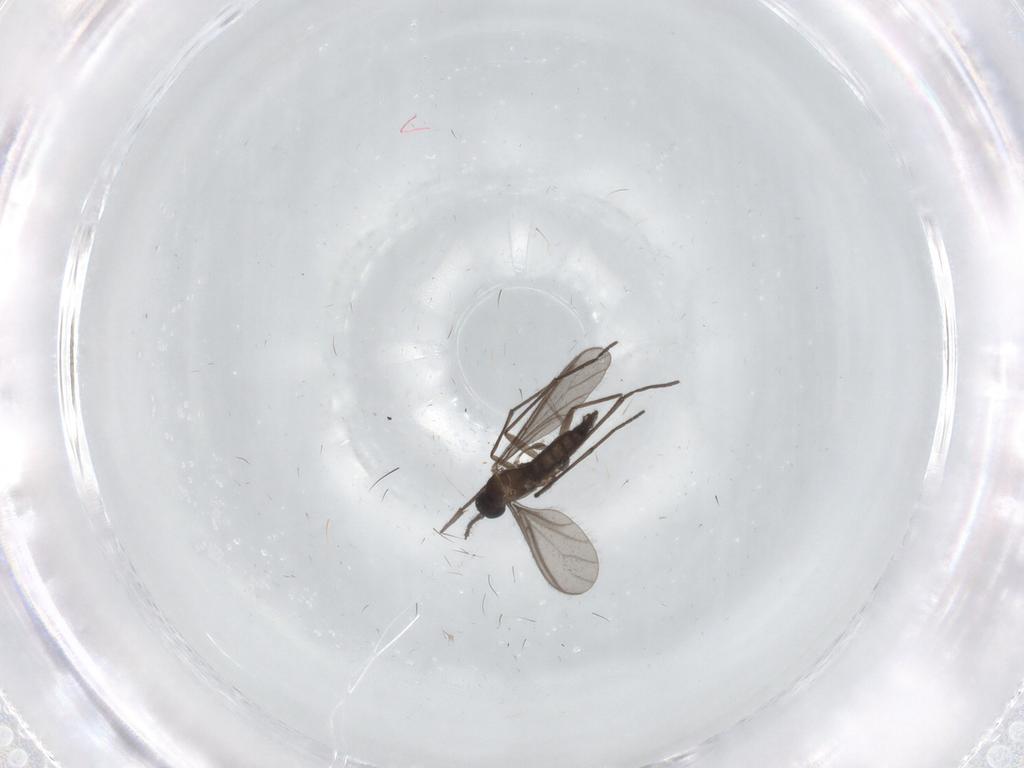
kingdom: Animalia
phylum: Arthropoda
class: Insecta
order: Diptera
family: Sciaridae
